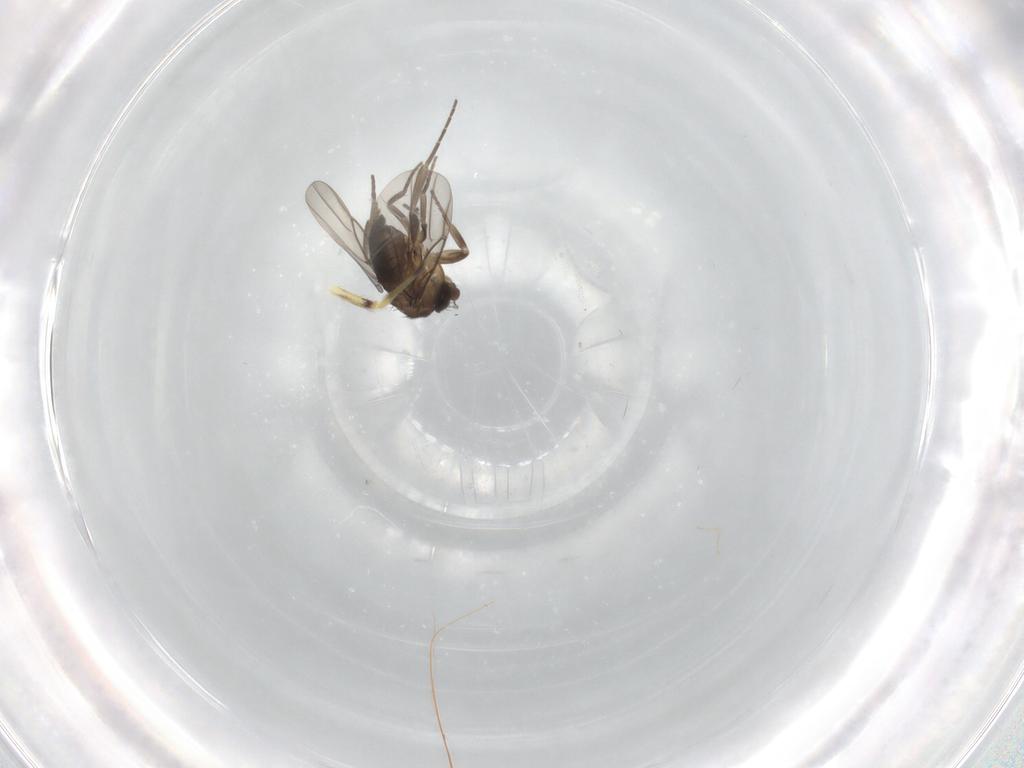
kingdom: Animalia
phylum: Arthropoda
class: Insecta
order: Diptera
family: Phoridae
